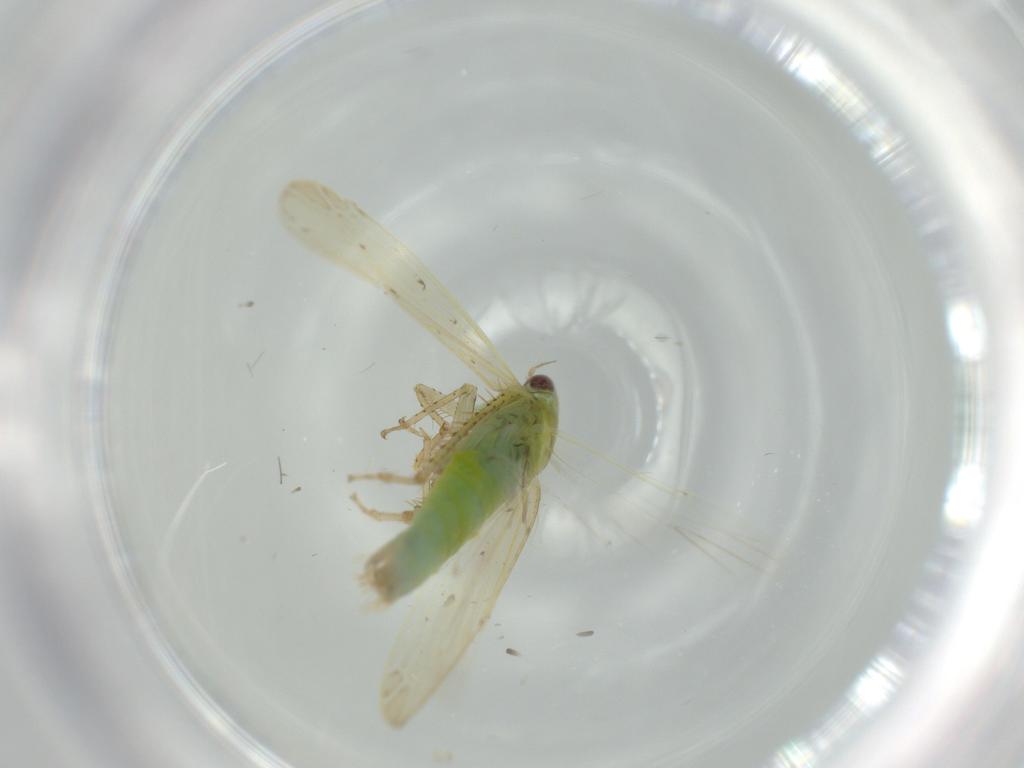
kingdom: Animalia
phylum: Arthropoda
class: Insecta
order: Hemiptera
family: Cicadellidae
